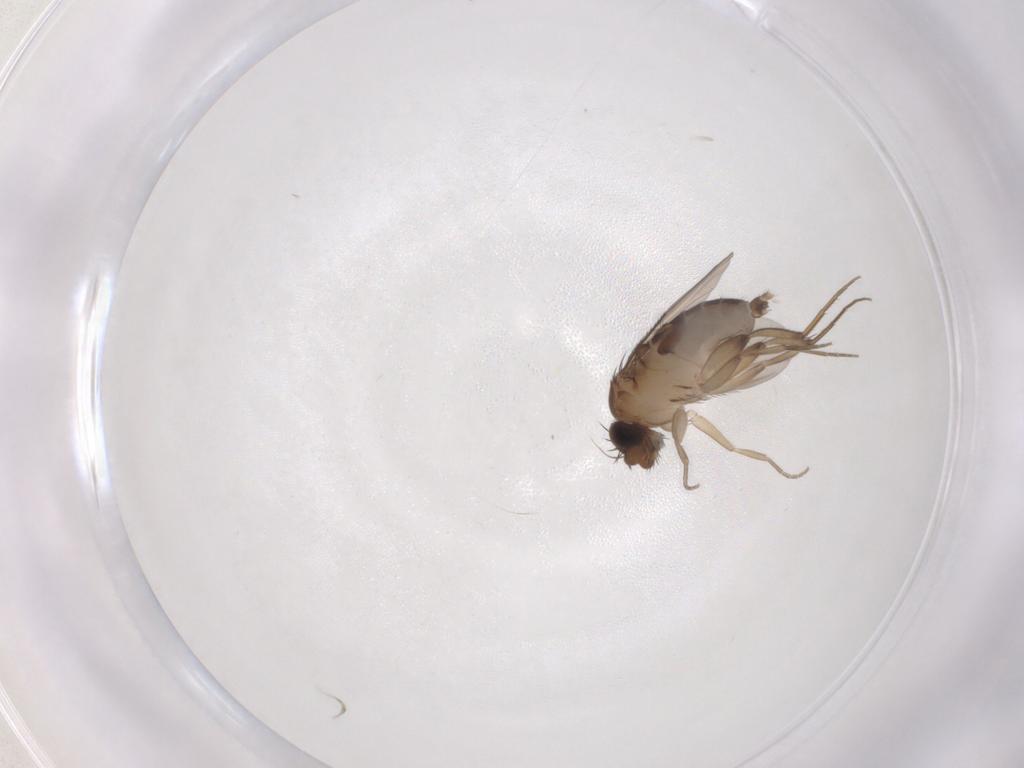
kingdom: Animalia
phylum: Arthropoda
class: Insecta
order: Diptera
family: Phoridae
